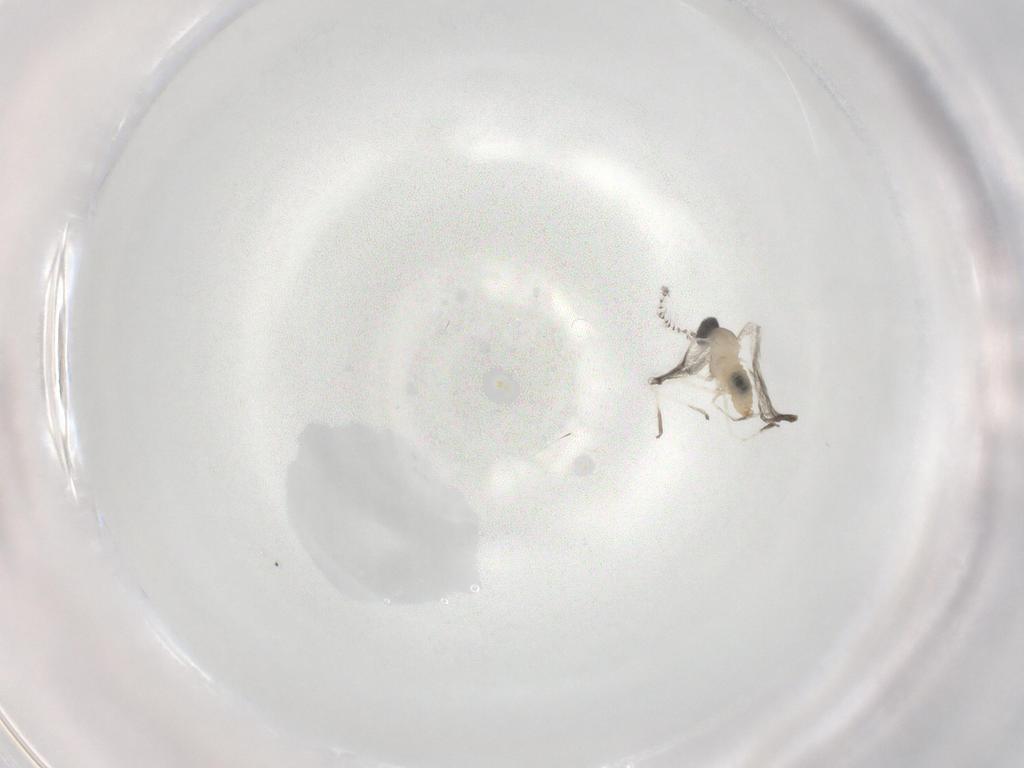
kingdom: Animalia
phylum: Arthropoda
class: Insecta
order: Diptera
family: Cecidomyiidae
